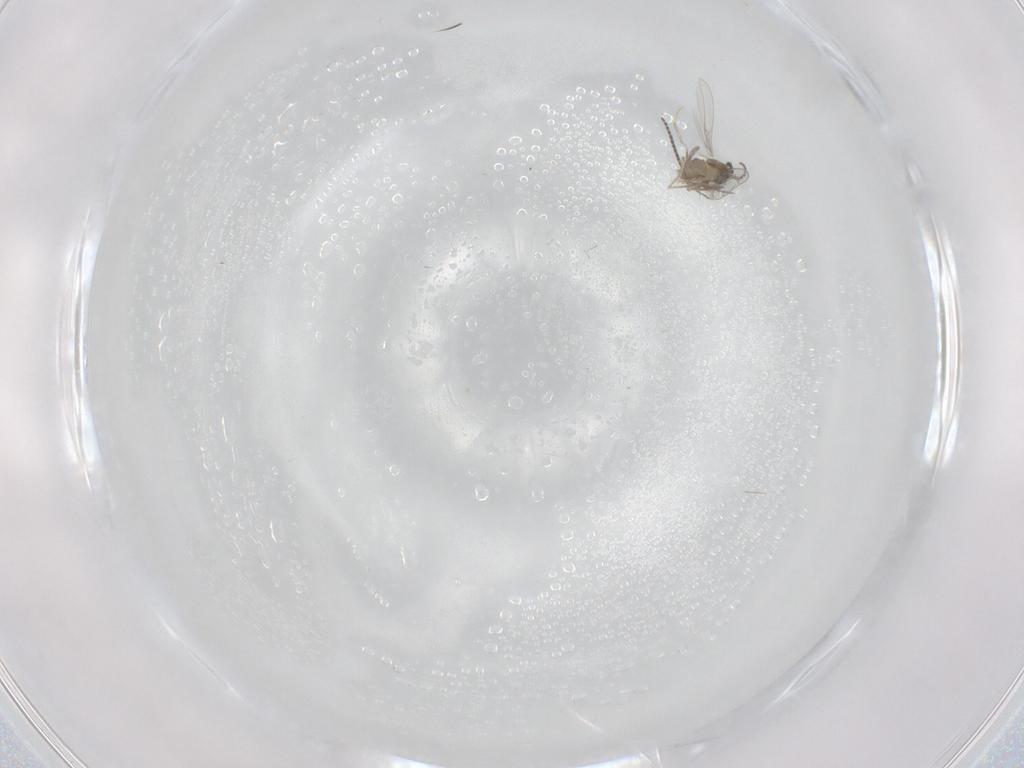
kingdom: Animalia
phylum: Arthropoda
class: Insecta
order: Diptera
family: Cecidomyiidae
